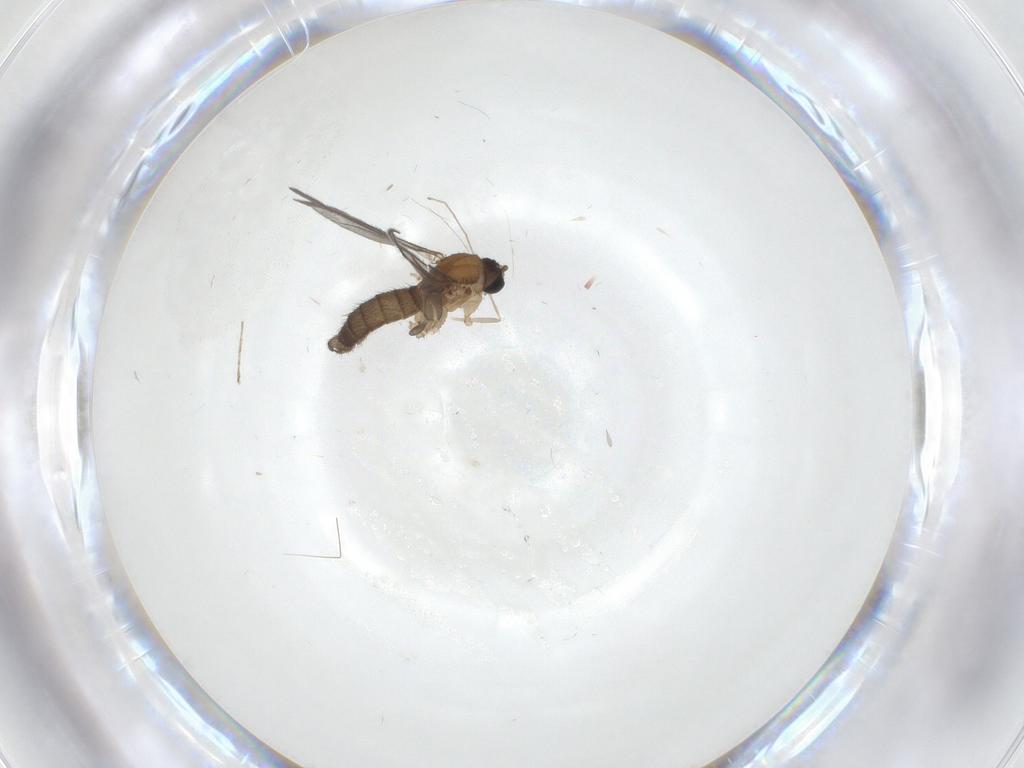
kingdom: Animalia
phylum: Arthropoda
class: Insecta
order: Diptera
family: Sciaridae
